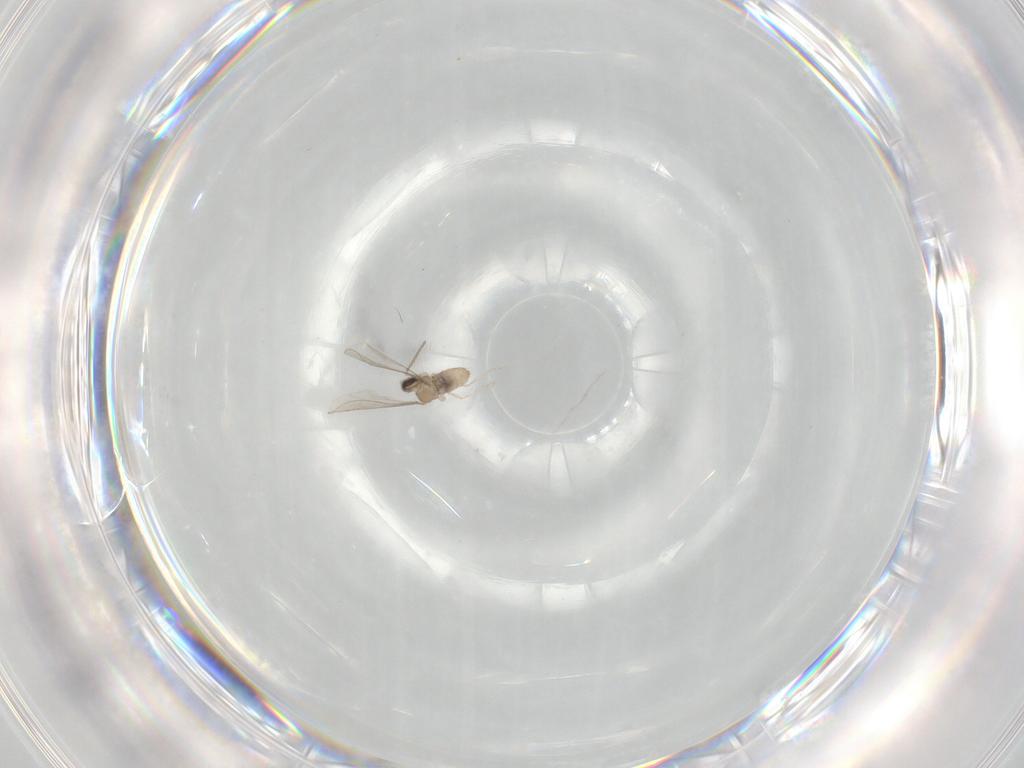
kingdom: Animalia
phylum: Arthropoda
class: Insecta
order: Diptera
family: Cecidomyiidae
